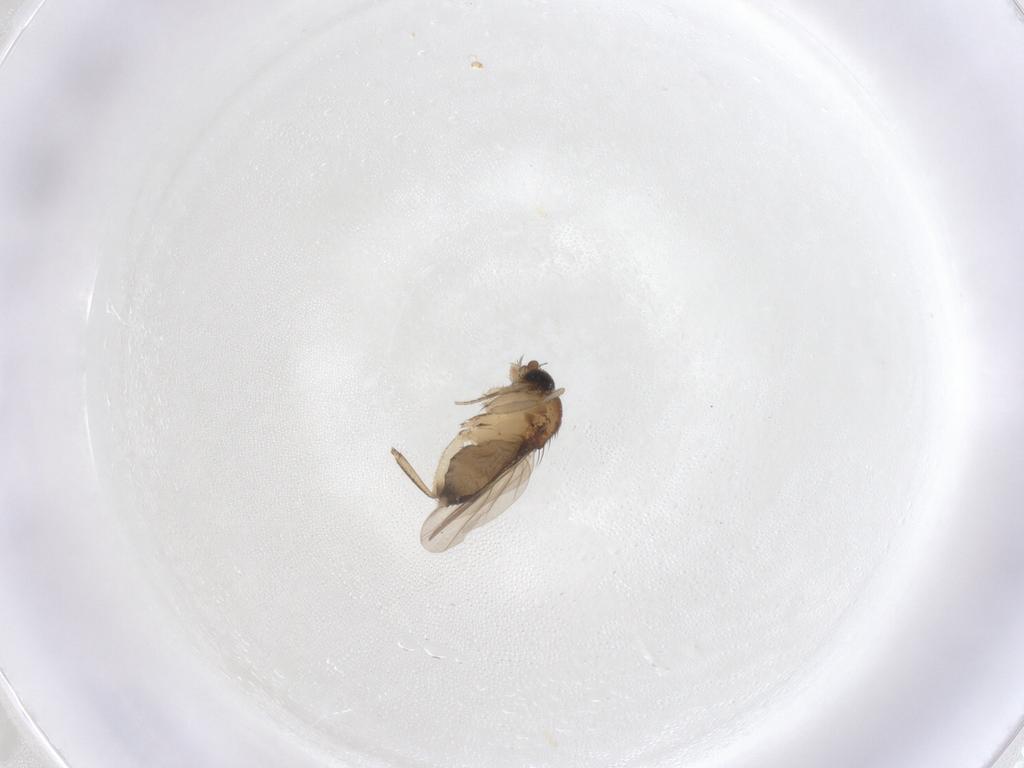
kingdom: Animalia
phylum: Arthropoda
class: Insecta
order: Diptera
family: Phoridae
